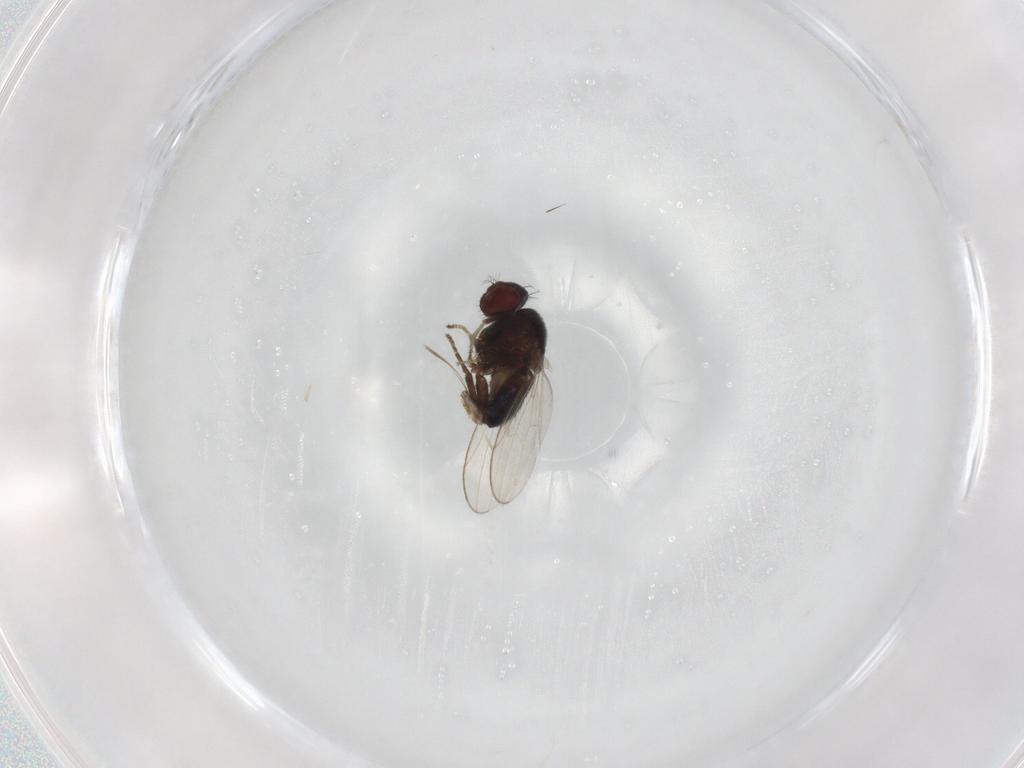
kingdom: Animalia
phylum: Arthropoda
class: Insecta
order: Diptera
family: Drosophilidae
